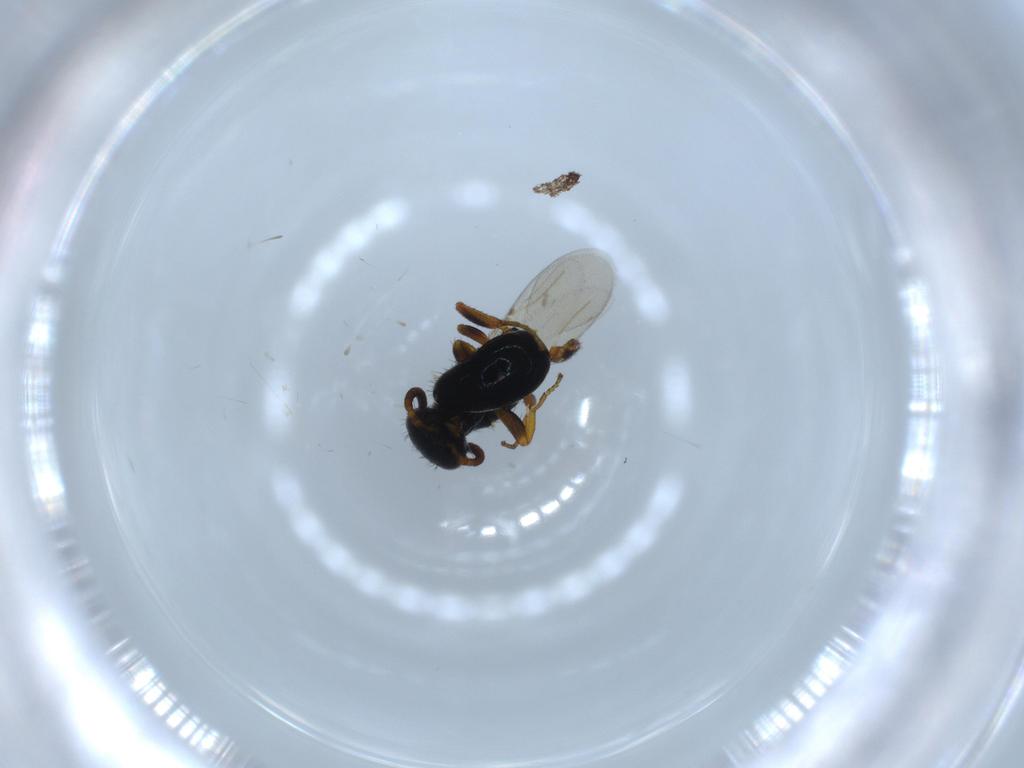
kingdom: Animalia
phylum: Arthropoda
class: Insecta
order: Hymenoptera
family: Bethylidae
